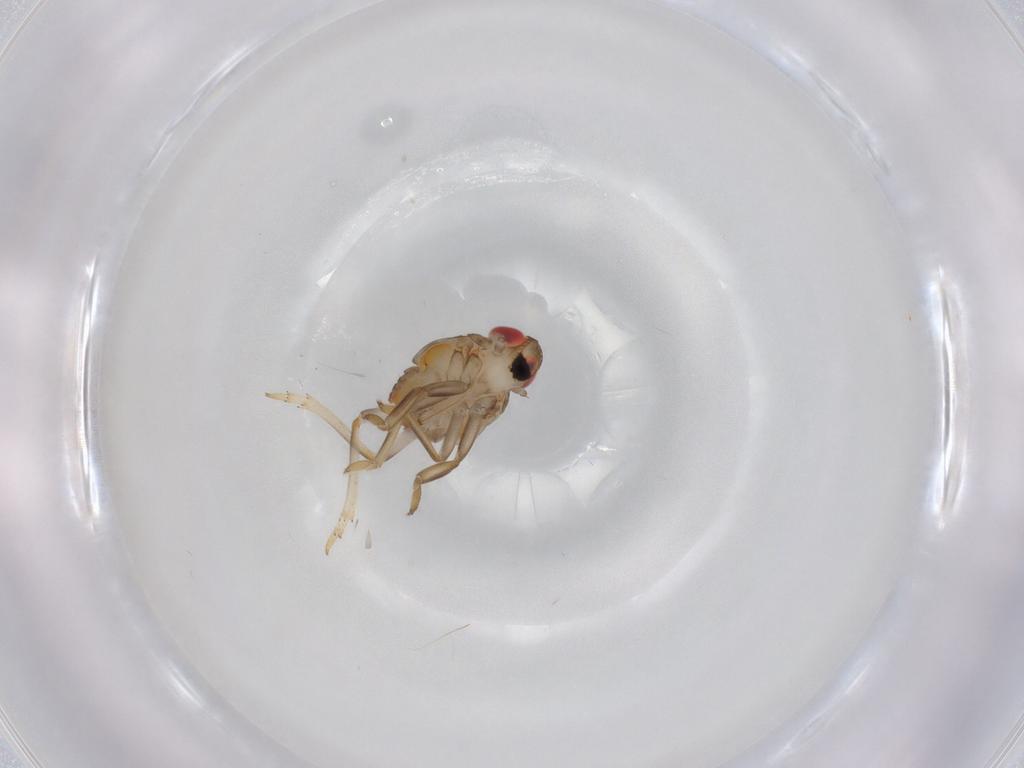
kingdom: Animalia
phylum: Arthropoda
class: Insecta
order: Hemiptera
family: Issidae
